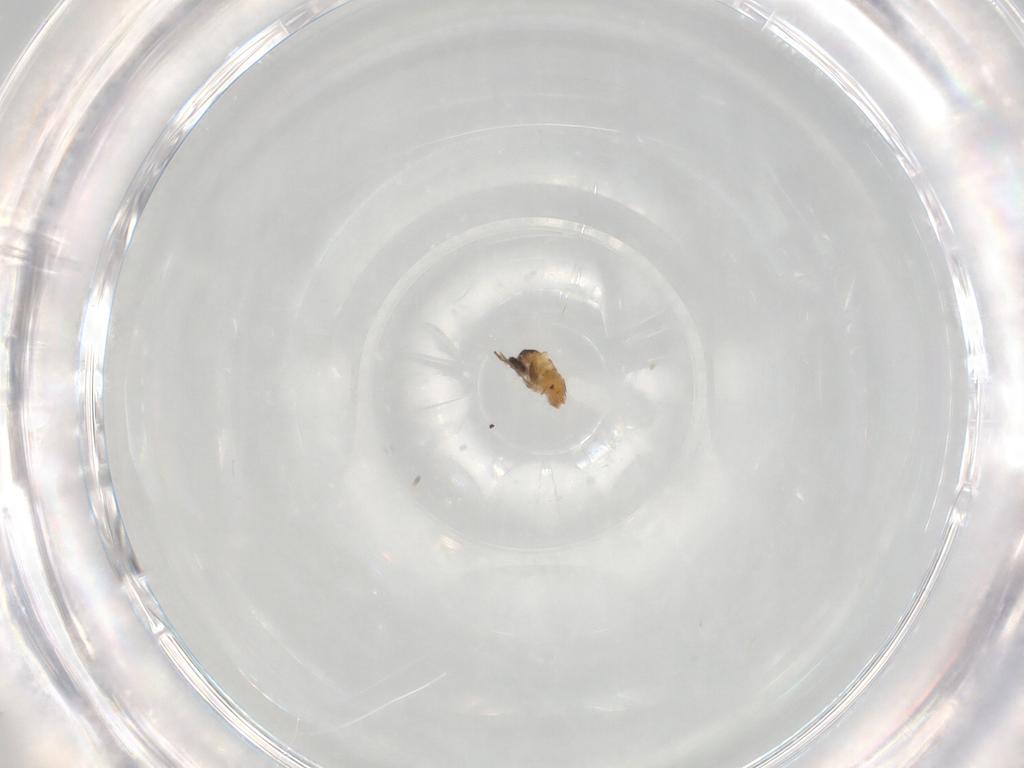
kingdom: Animalia
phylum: Arthropoda
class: Insecta
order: Diptera
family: Cecidomyiidae
